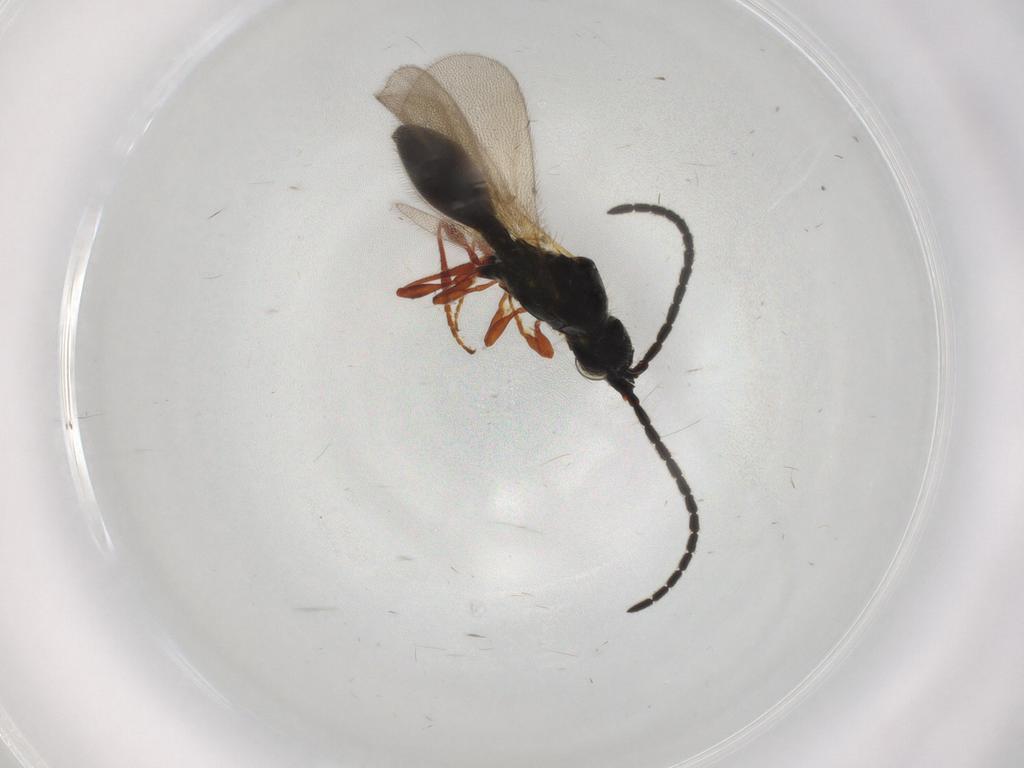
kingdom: Animalia
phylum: Arthropoda
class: Insecta
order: Hymenoptera
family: Diapriidae
